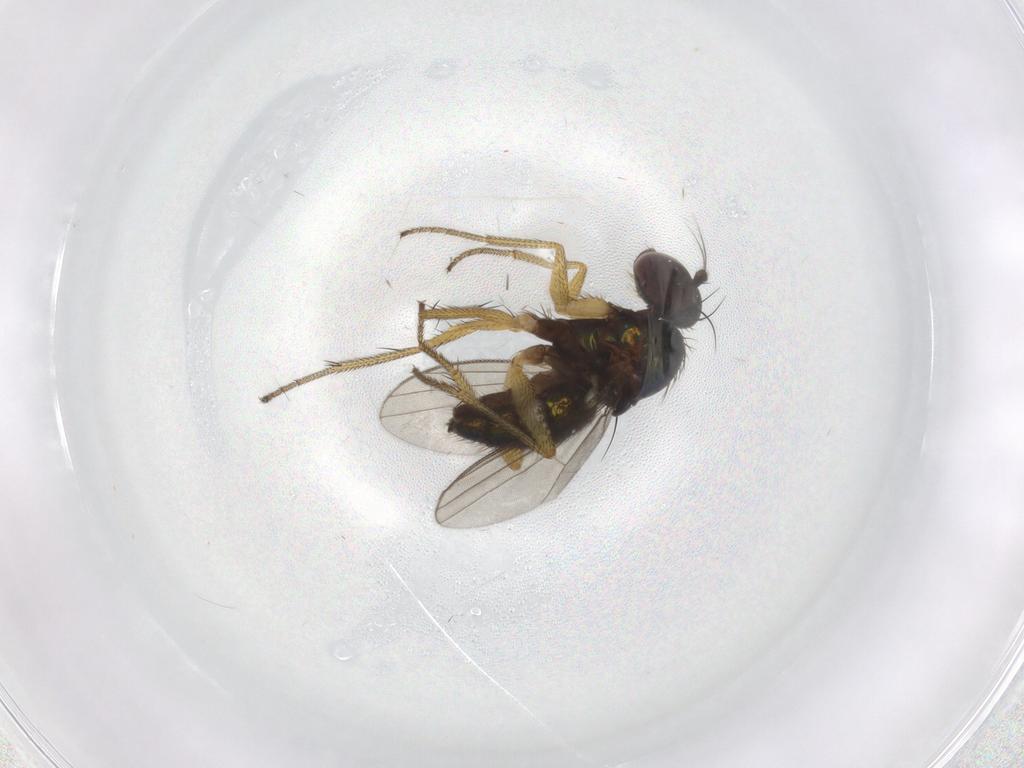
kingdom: Animalia
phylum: Arthropoda
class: Insecta
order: Diptera
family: Dolichopodidae
